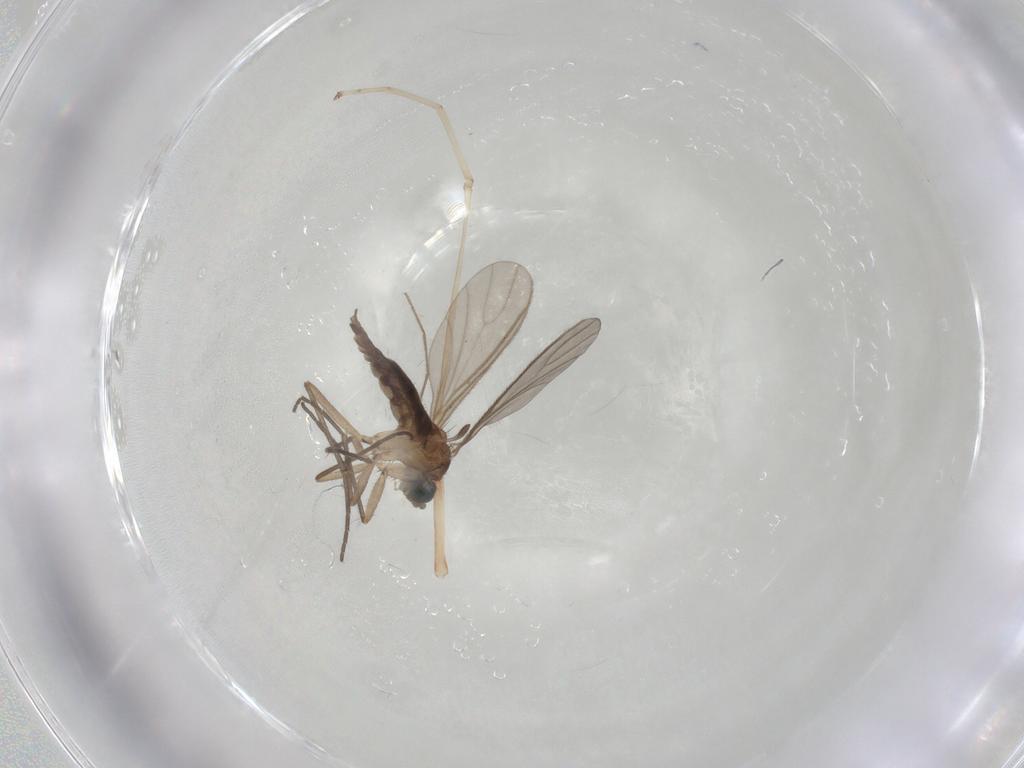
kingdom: Animalia
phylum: Arthropoda
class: Insecta
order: Diptera
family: Sciaridae
